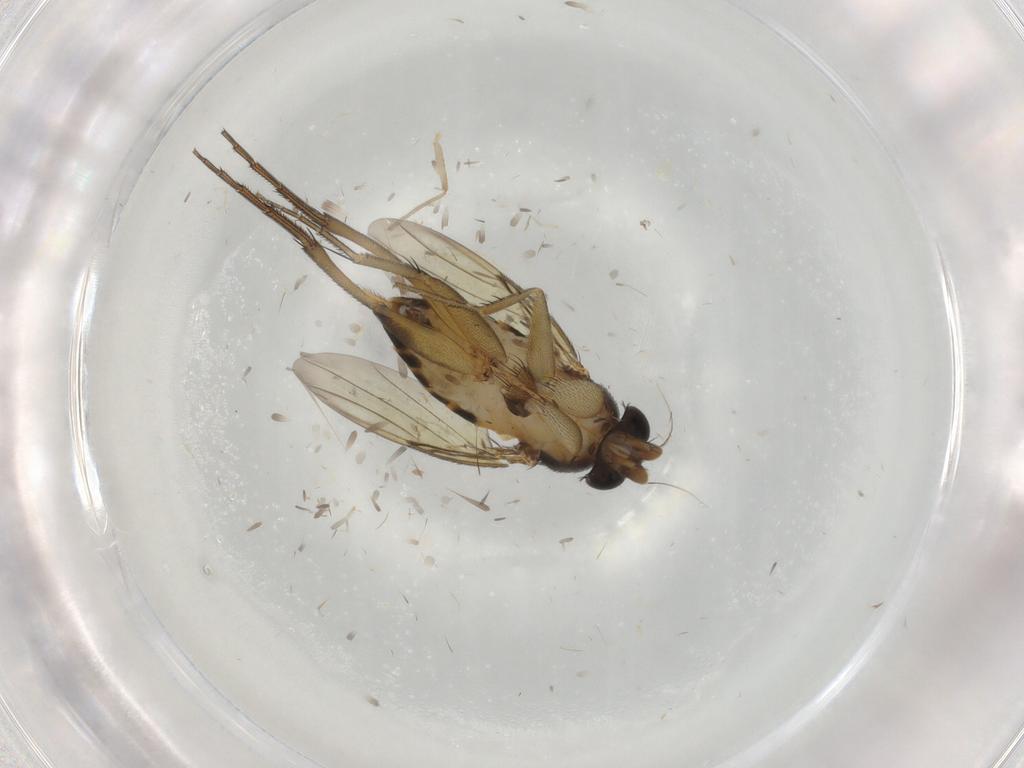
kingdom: Animalia
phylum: Arthropoda
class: Insecta
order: Diptera
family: Phoridae
